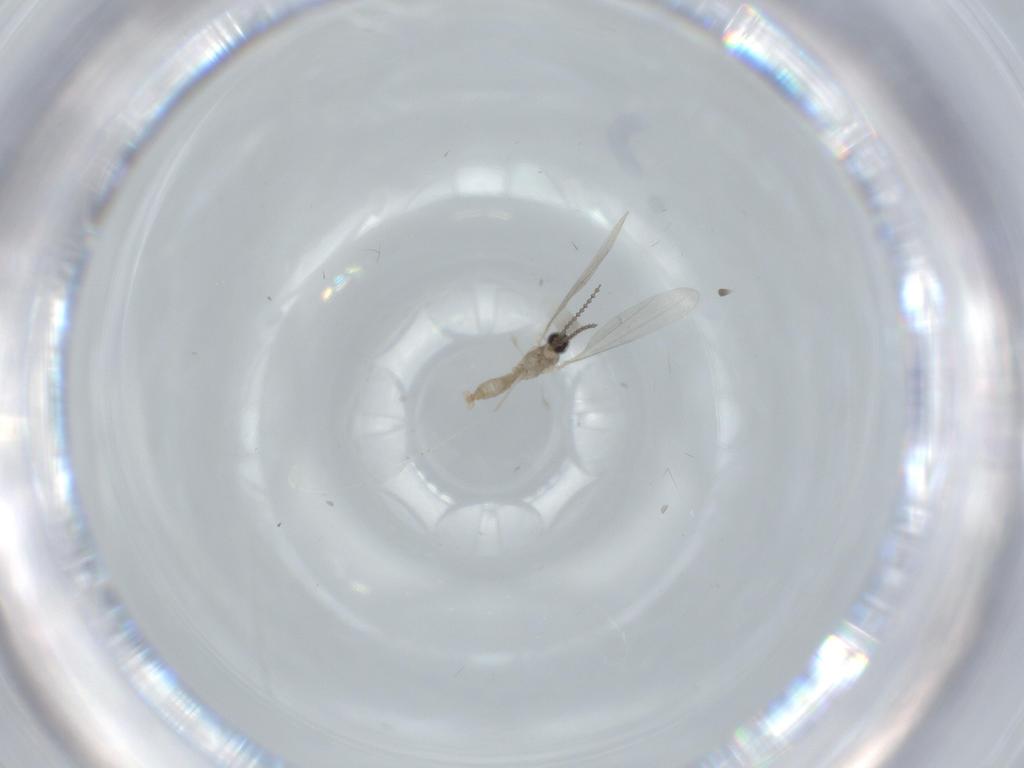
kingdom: Animalia
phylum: Arthropoda
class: Insecta
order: Diptera
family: Cecidomyiidae
